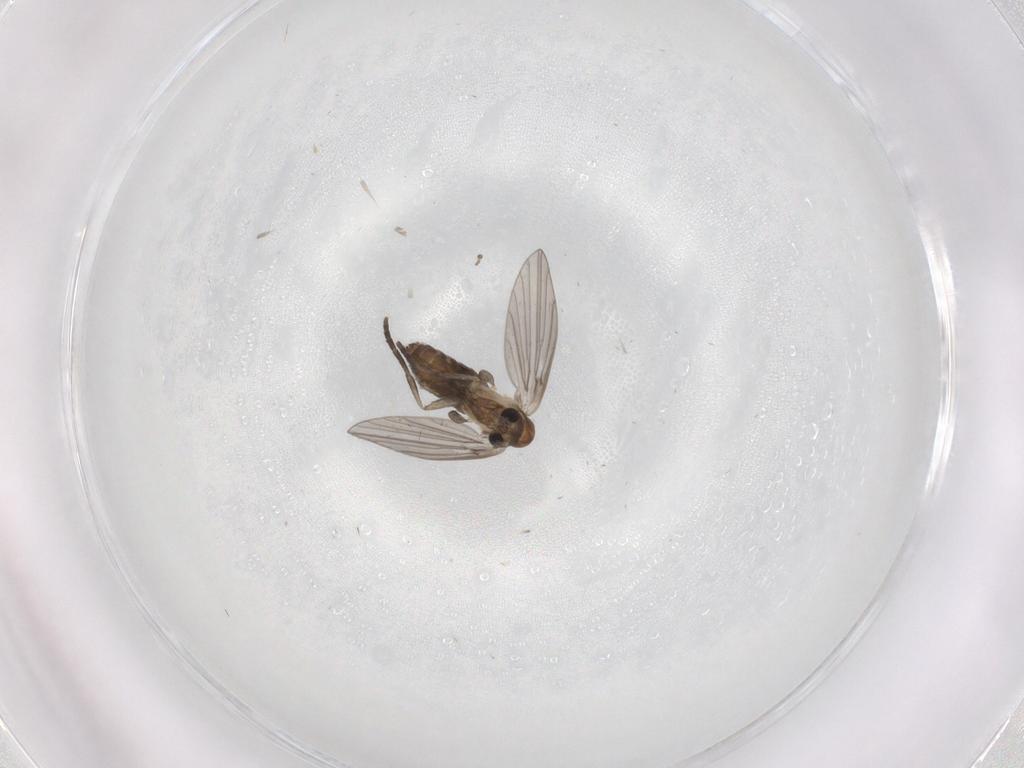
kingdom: Animalia
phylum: Arthropoda
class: Insecta
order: Diptera
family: Psychodidae
